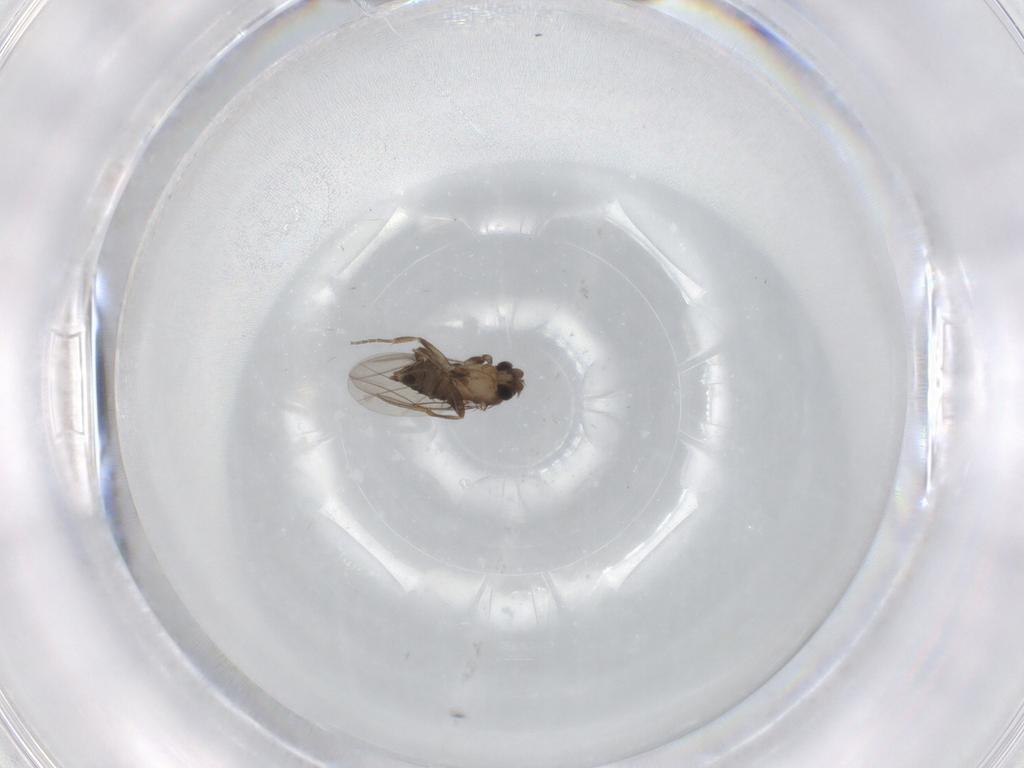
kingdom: Animalia
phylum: Arthropoda
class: Insecta
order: Diptera
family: Phoridae
